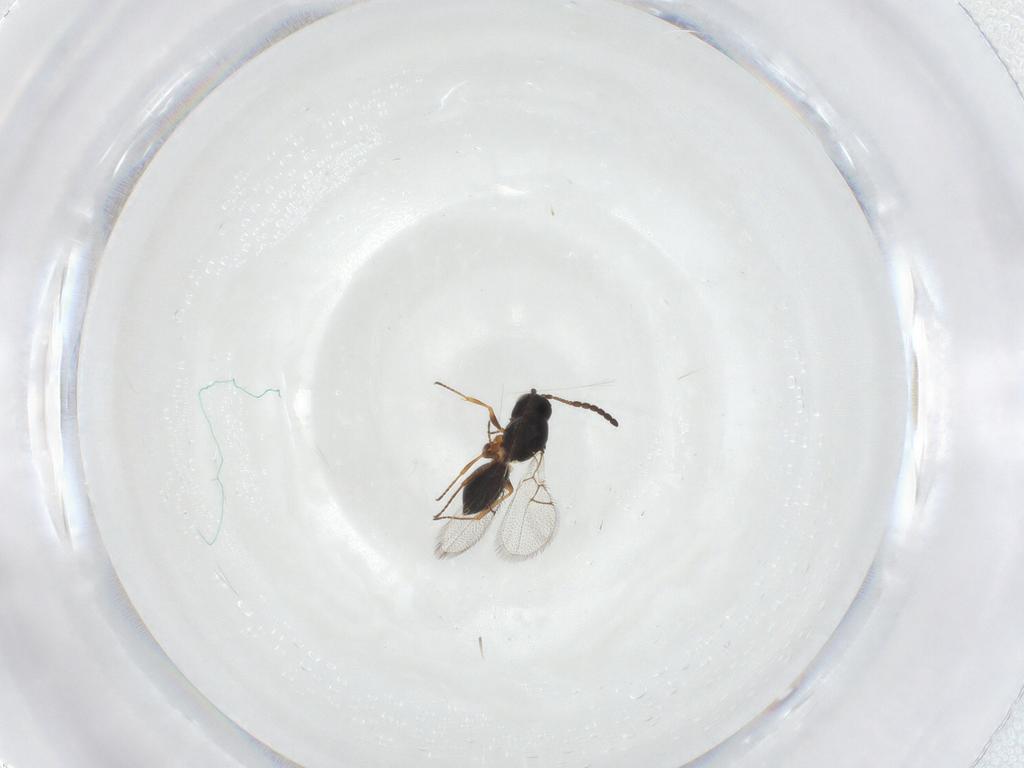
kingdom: Animalia
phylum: Arthropoda
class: Insecta
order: Hymenoptera
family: Figitidae
